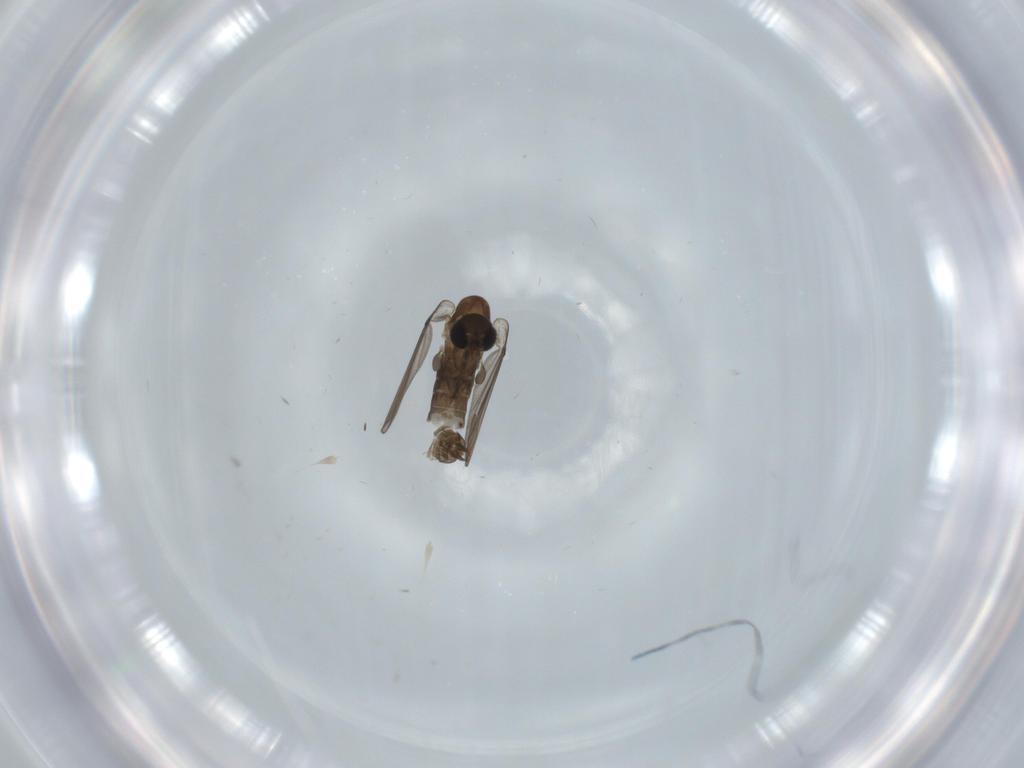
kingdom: Animalia
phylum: Arthropoda
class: Insecta
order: Diptera
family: Psychodidae
